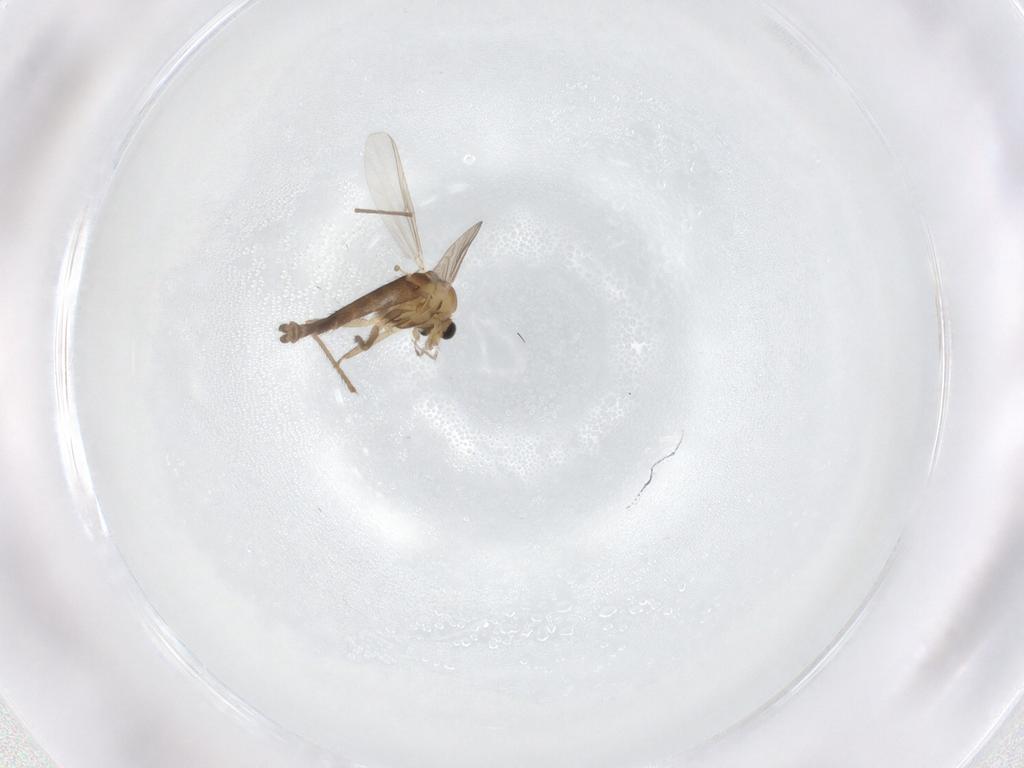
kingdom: Animalia
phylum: Arthropoda
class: Insecta
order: Diptera
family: Chironomidae
